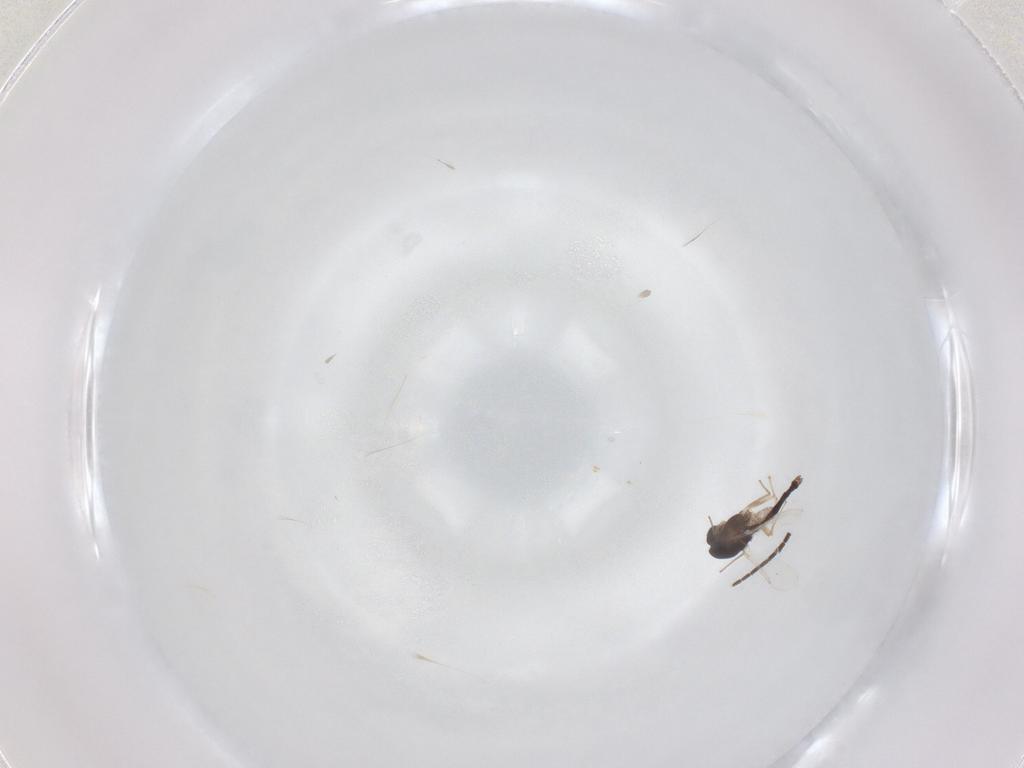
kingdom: Animalia
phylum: Arthropoda
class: Insecta
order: Diptera
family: Chironomidae
